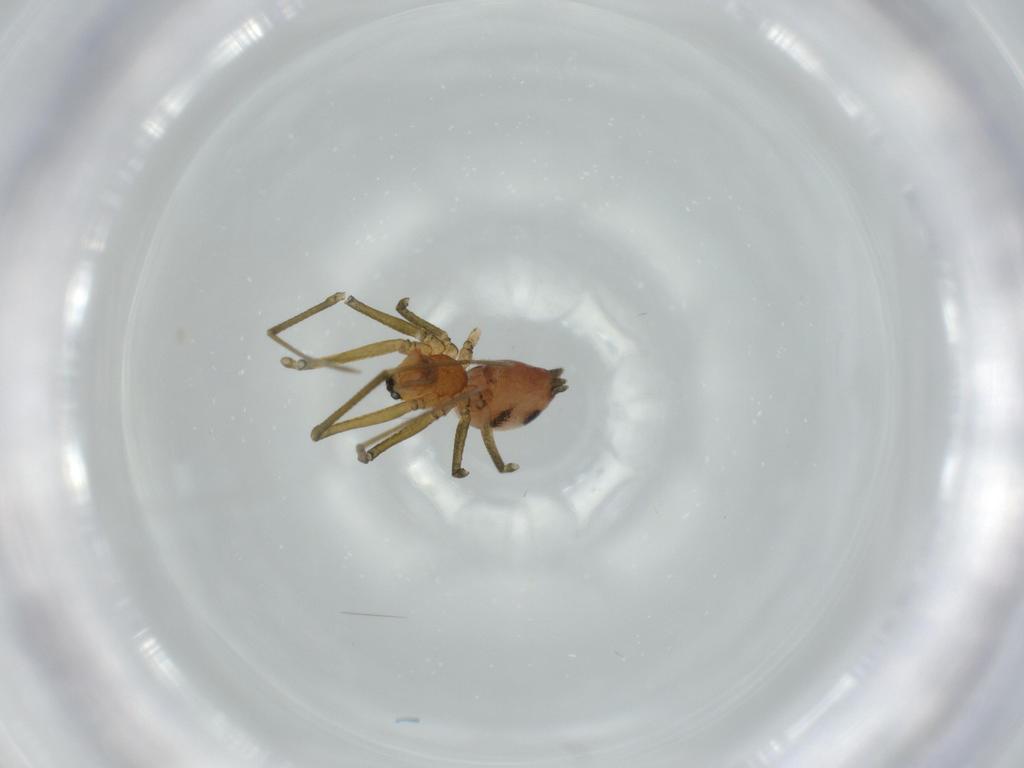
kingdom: Animalia
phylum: Arthropoda
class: Arachnida
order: Araneae
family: Linyphiidae
